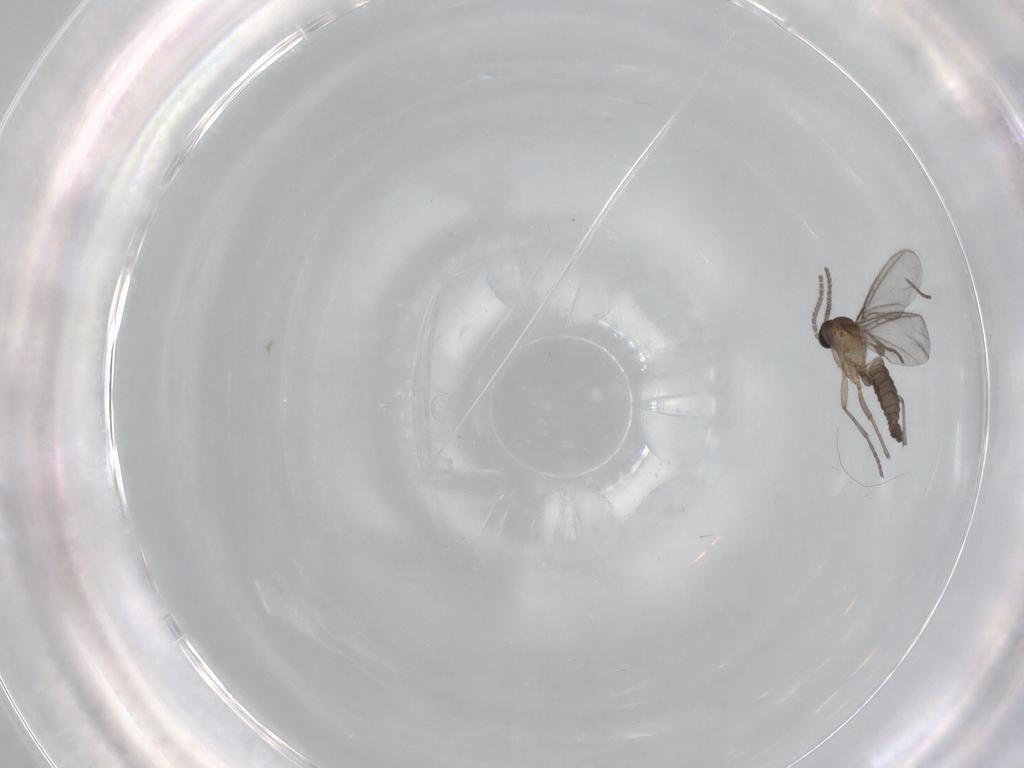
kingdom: Animalia
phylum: Arthropoda
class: Insecta
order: Diptera
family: Sciaridae
